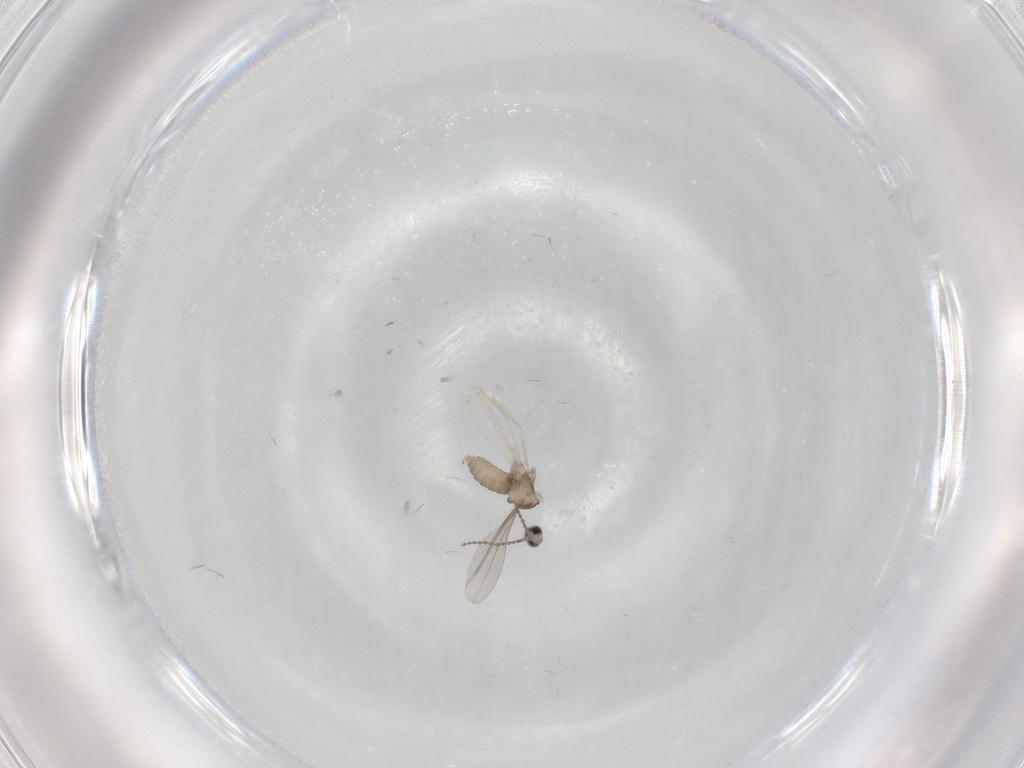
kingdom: Animalia
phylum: Arthropoda
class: Insecta
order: Diptera
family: Cecidomyiidae
